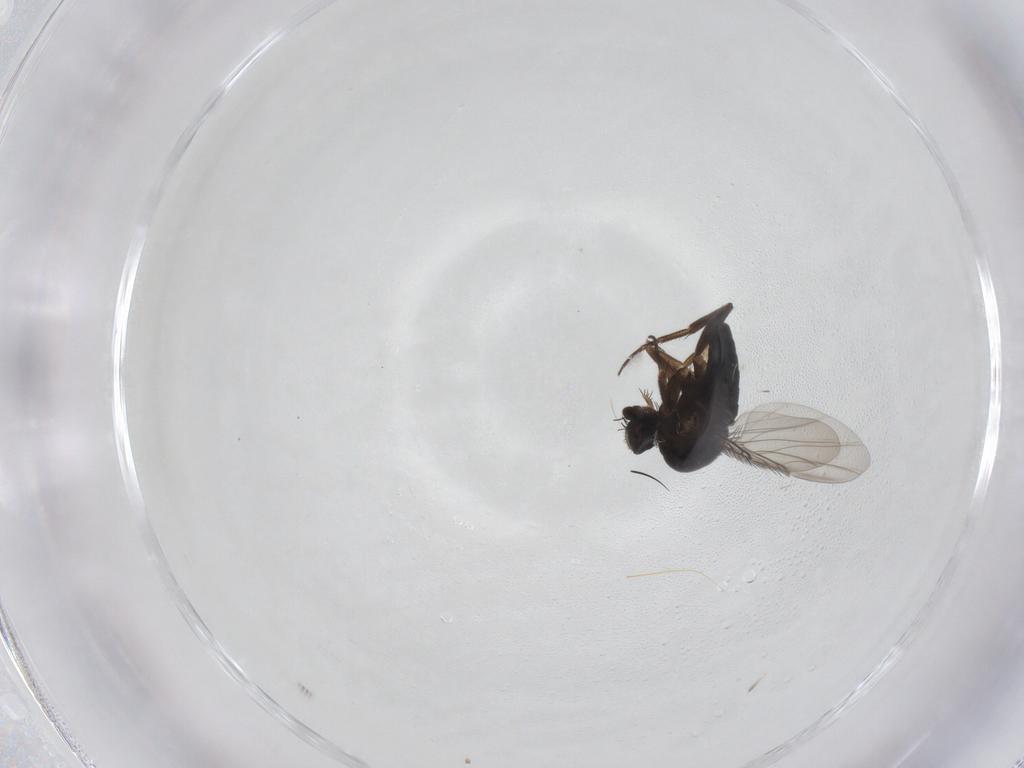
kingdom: Animalia
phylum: Arthropoda
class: Insecta
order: Diptera
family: Phoridae
